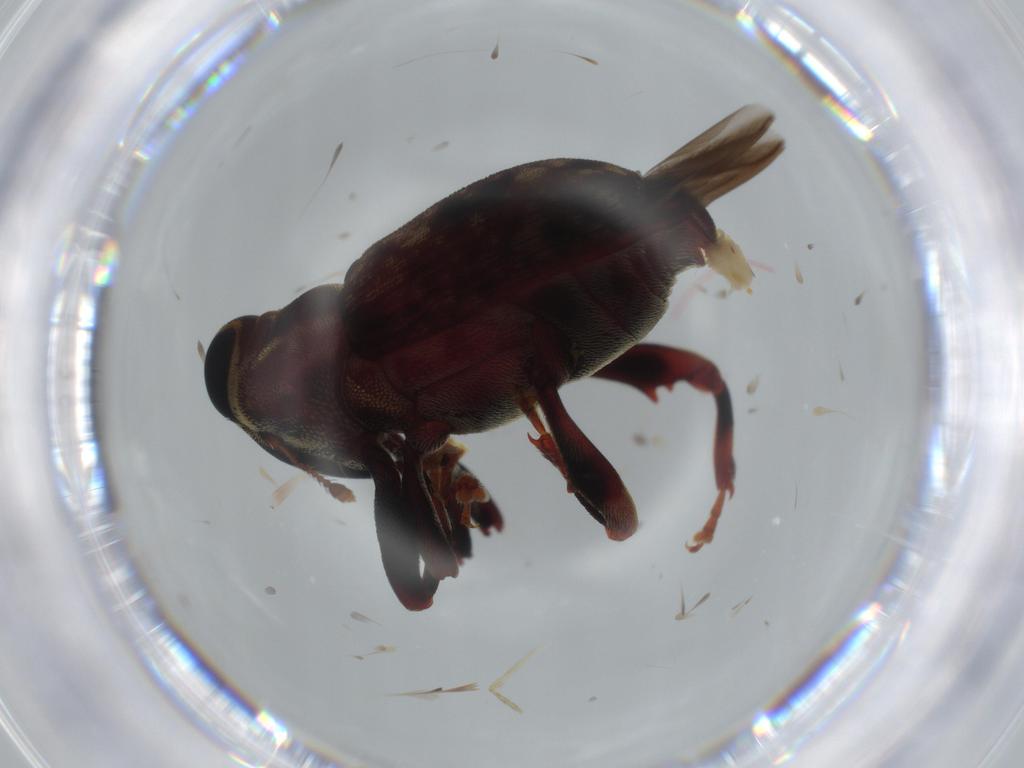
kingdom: Animalia
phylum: Arthropoda
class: Insecta
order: Coleoptera
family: Curculionidae
